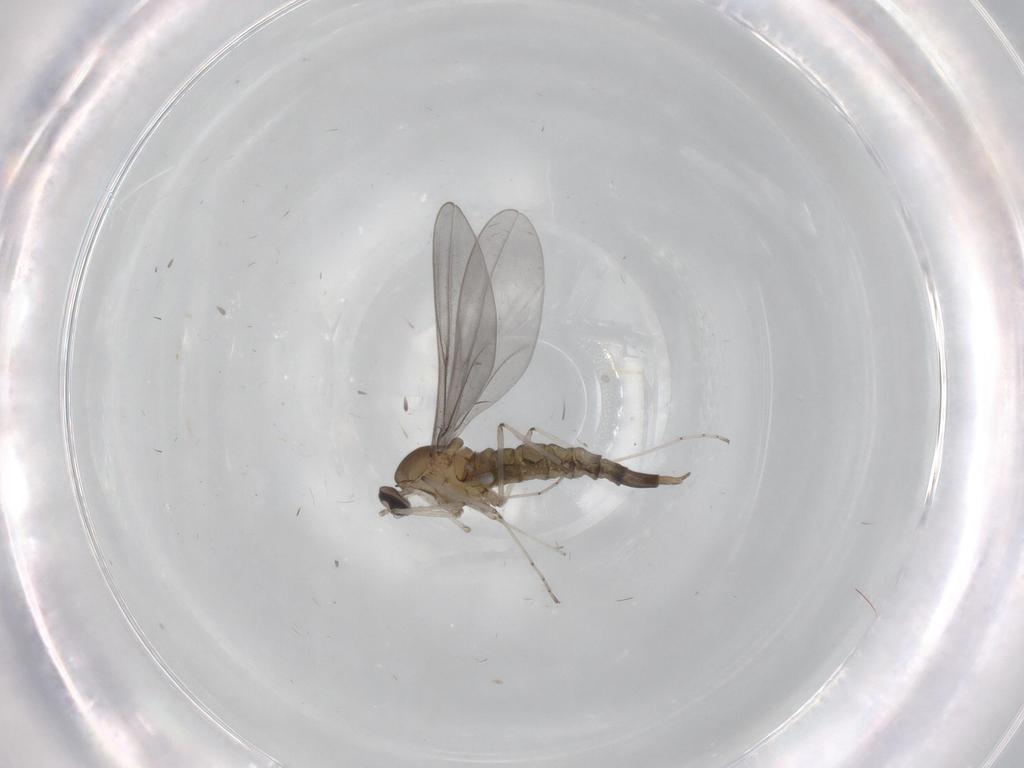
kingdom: Animalia
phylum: Arthropoda
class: Insecta
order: Diptera
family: Cecidomyiidae
